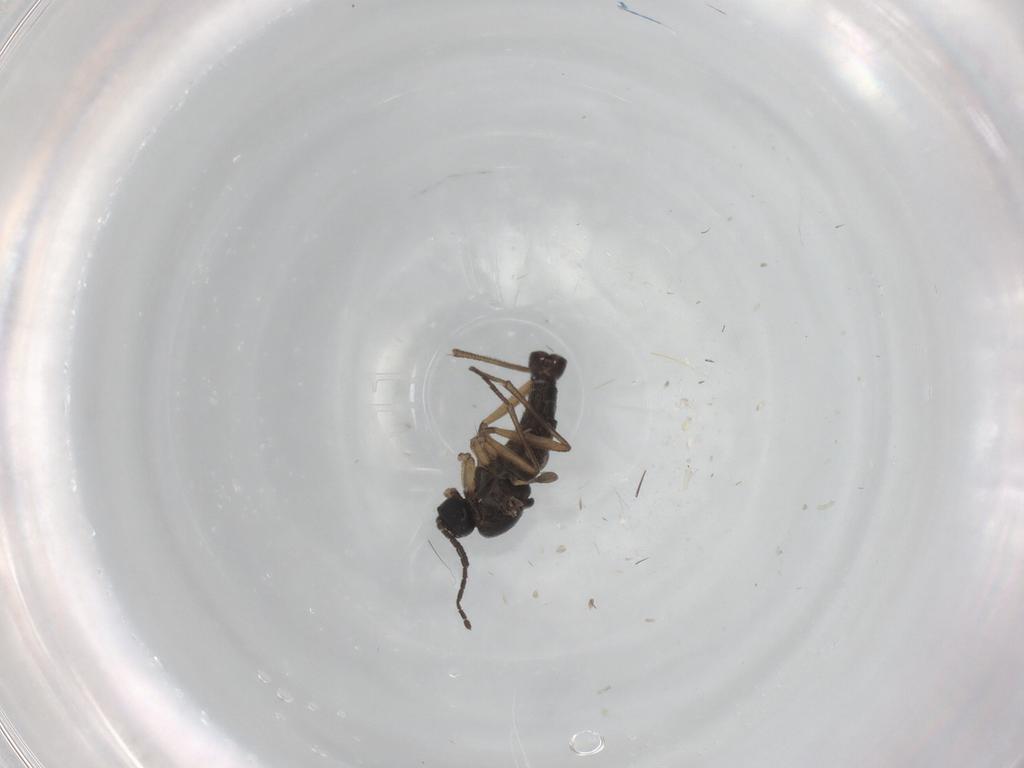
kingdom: Animalia
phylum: Arthropoda
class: Insecta
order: Diptera
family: Sciaridae
